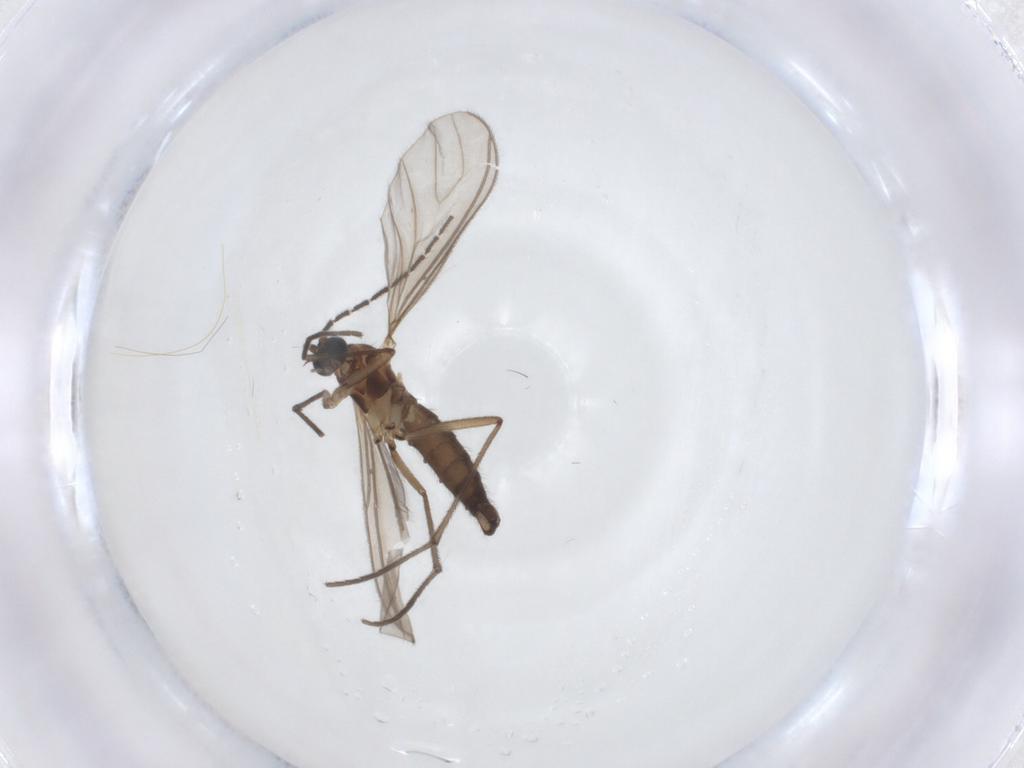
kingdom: Animalia
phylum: Arthropoda
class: Insecta
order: Diptera
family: Sciaridae
